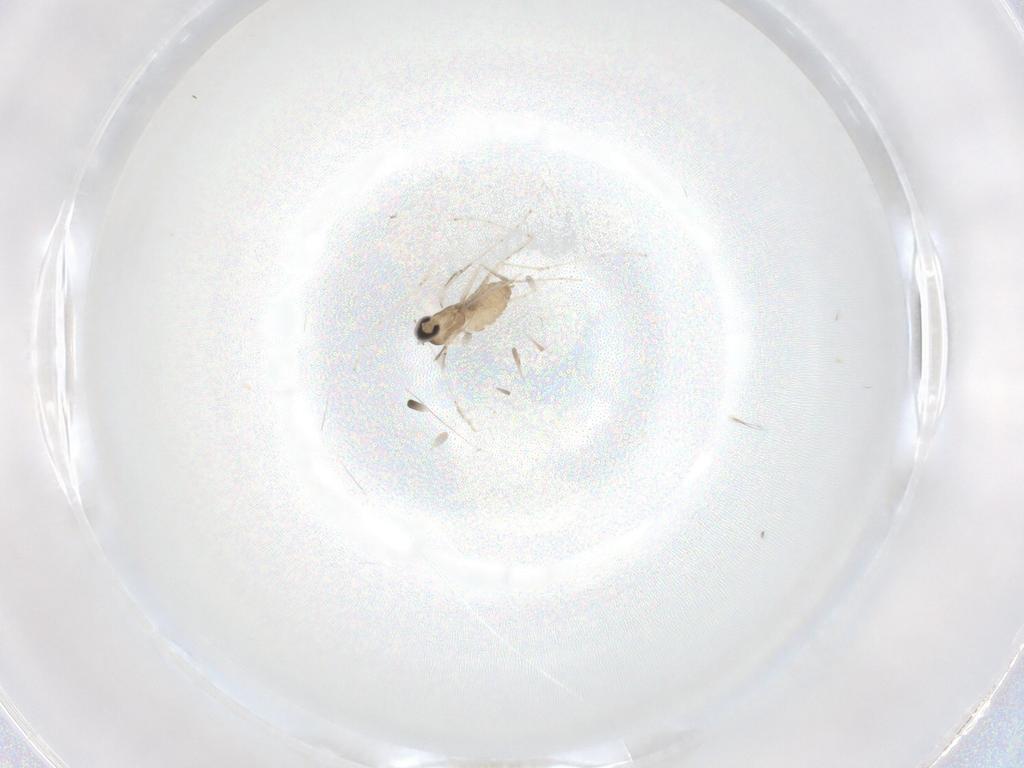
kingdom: Animalia
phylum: Arthropoda
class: Insecta
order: Diptera
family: Cecidomyiidae
